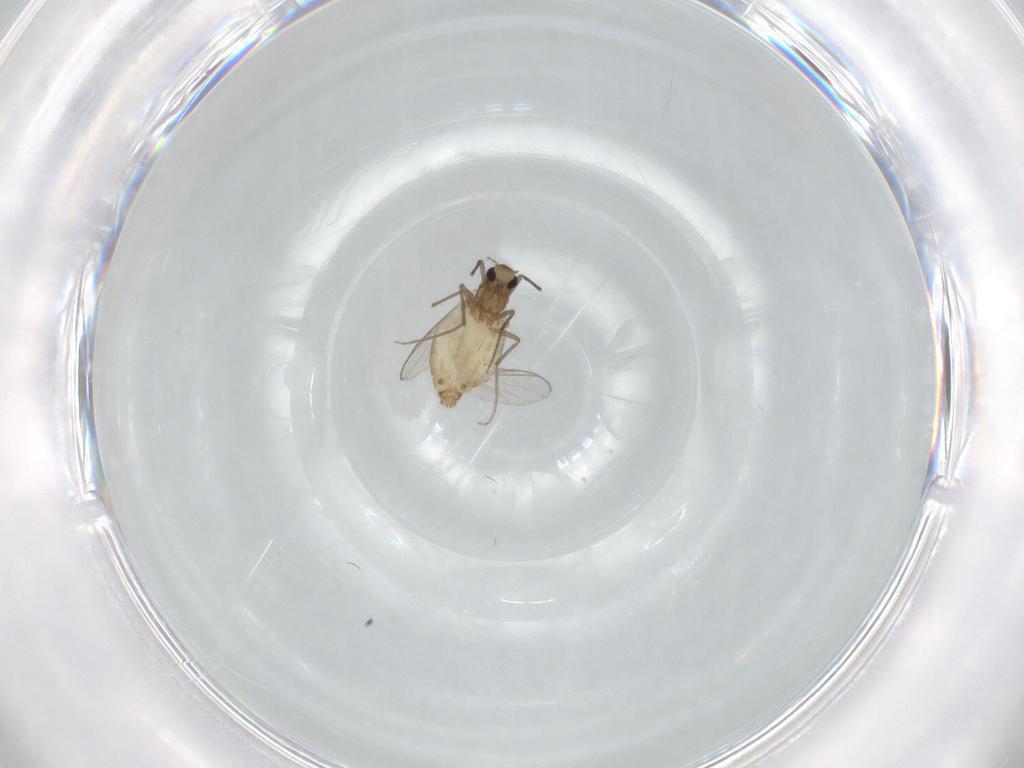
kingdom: Animalia
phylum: Arthropoda
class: Insecta
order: Diptera
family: Chironomidae
